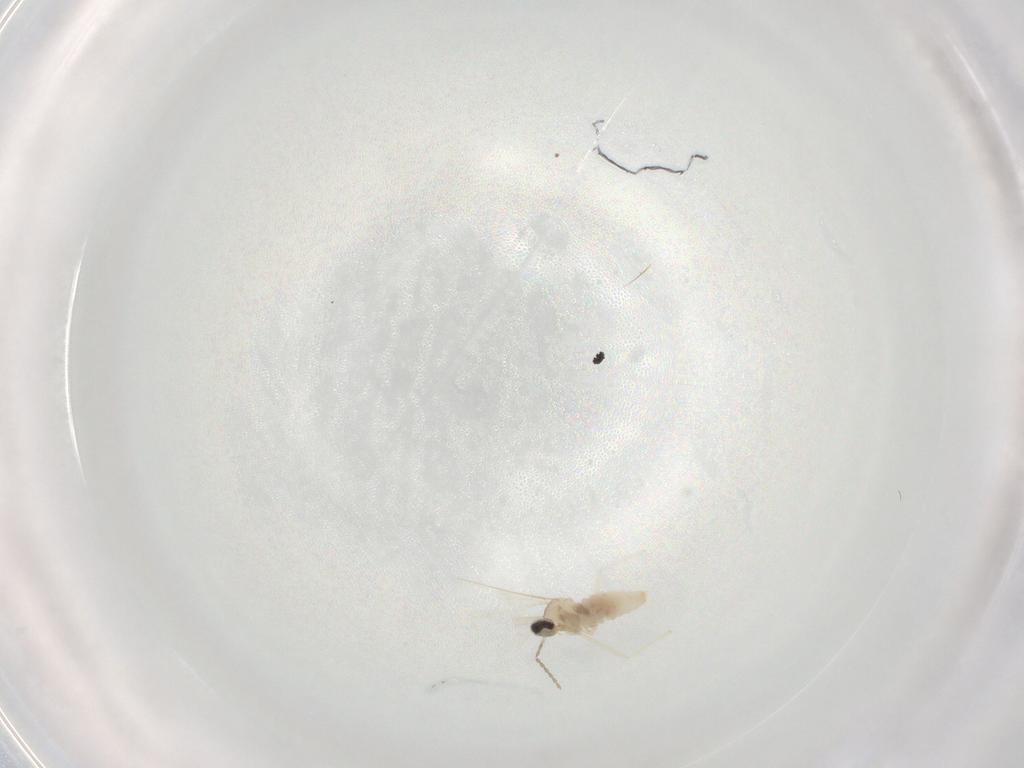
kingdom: Animalia
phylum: Arthropoda
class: Insecta
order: Diptera
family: Cecidomyiidae
